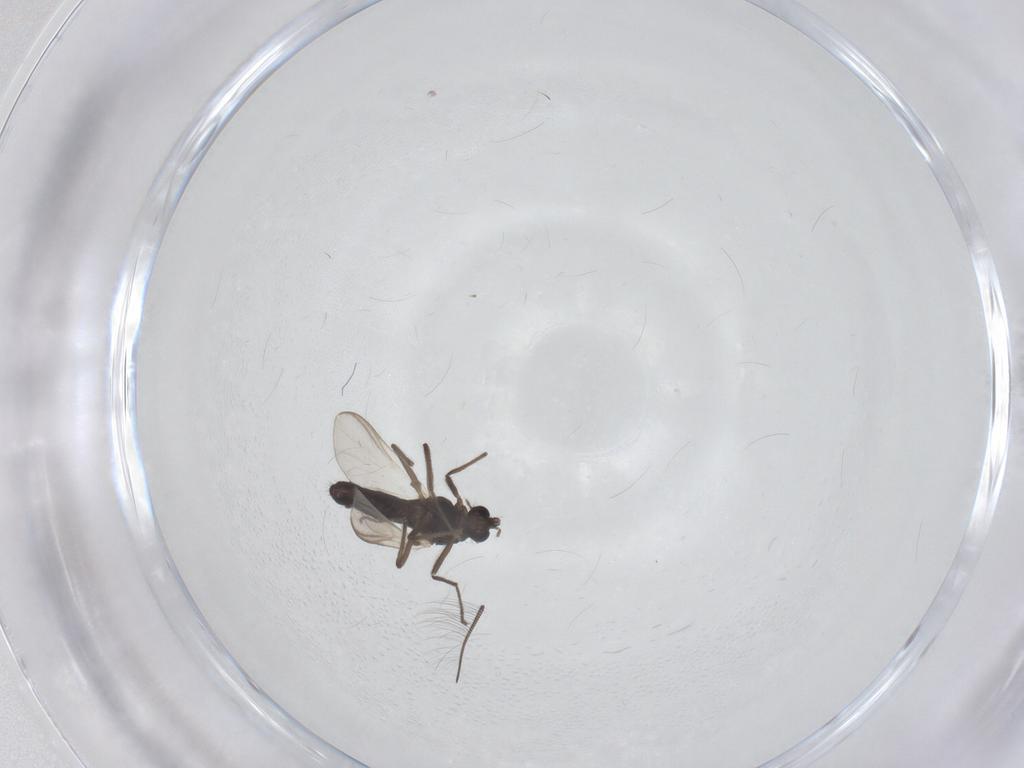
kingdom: Animalia
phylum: Arthropoda
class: Insecta
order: Diptera
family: Chironomidae
